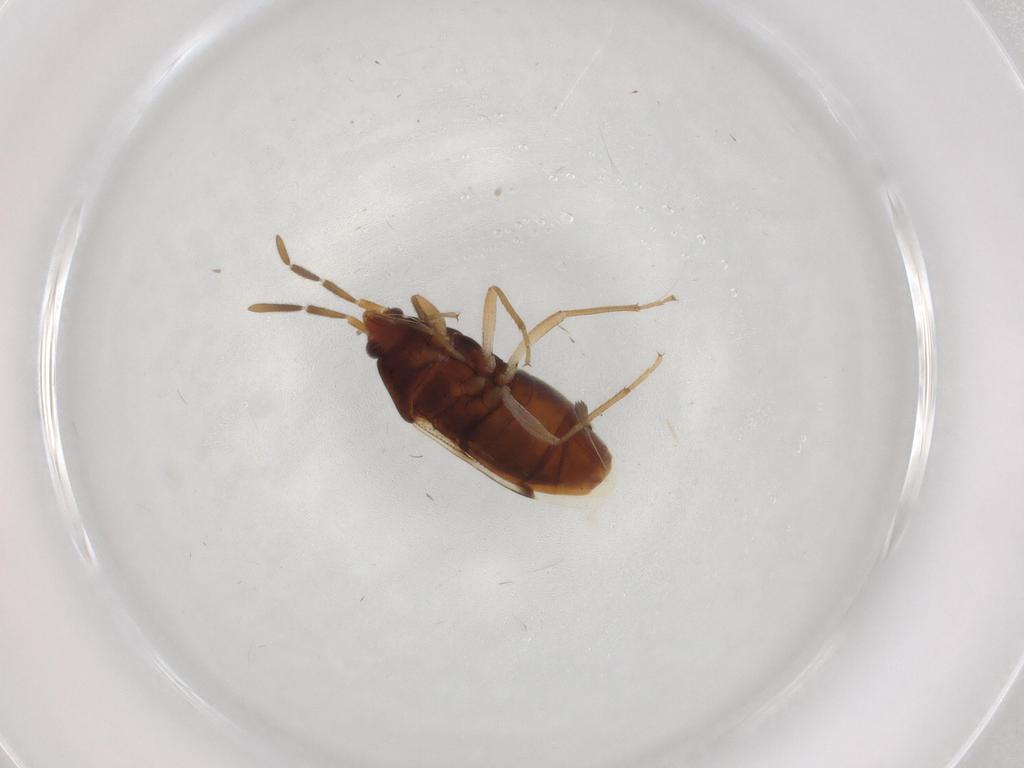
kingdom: Animalia
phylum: Arthropoda
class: Insecta
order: Hemiptera
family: Rhyparochromidae
